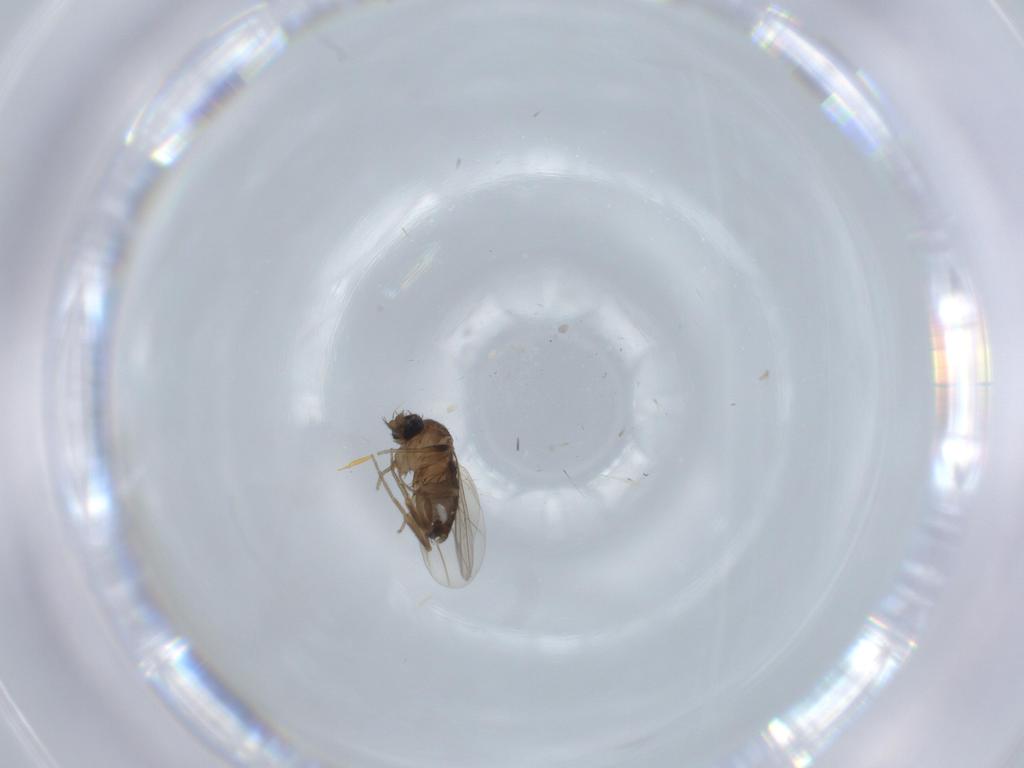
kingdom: Animalia
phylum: Arthropoda
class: Insecta
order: Diptera
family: Phoridae
